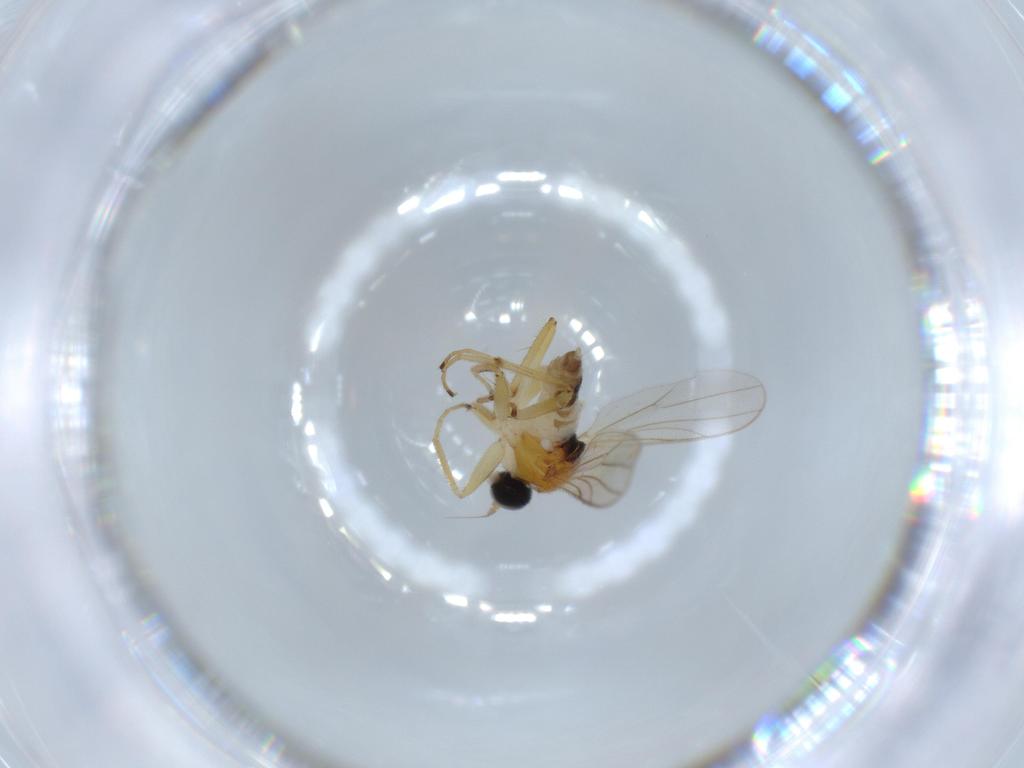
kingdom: Animalia
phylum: Arthropoda
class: Insecta
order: Diptera
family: Hybotidae
